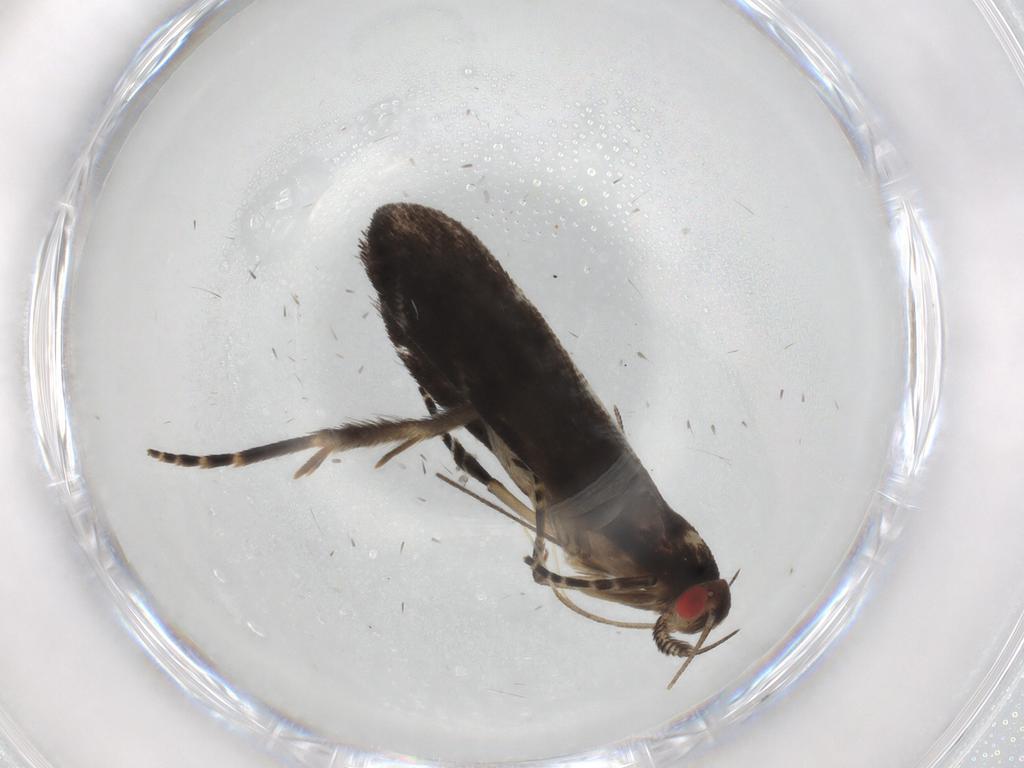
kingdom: Animalia
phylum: Arthropoda
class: Insecta
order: Lepidoptera
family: Gelechiidae
